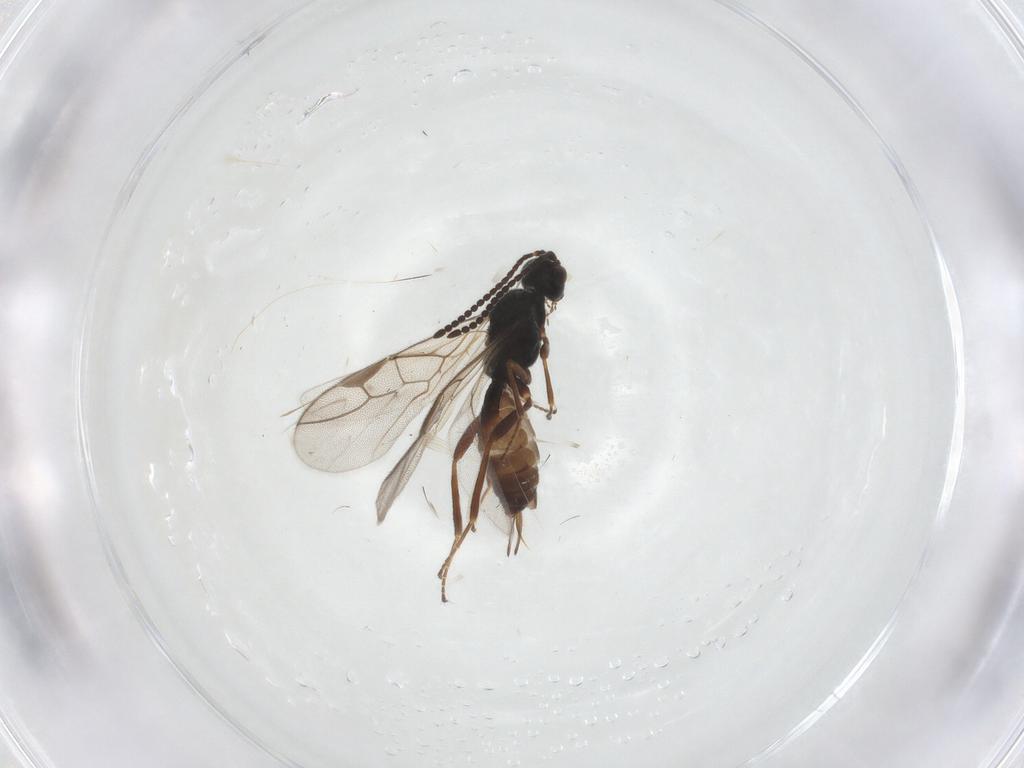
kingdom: Animalia
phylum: Arthropoda
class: Insecta
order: Hymenoptera
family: Braconidae
